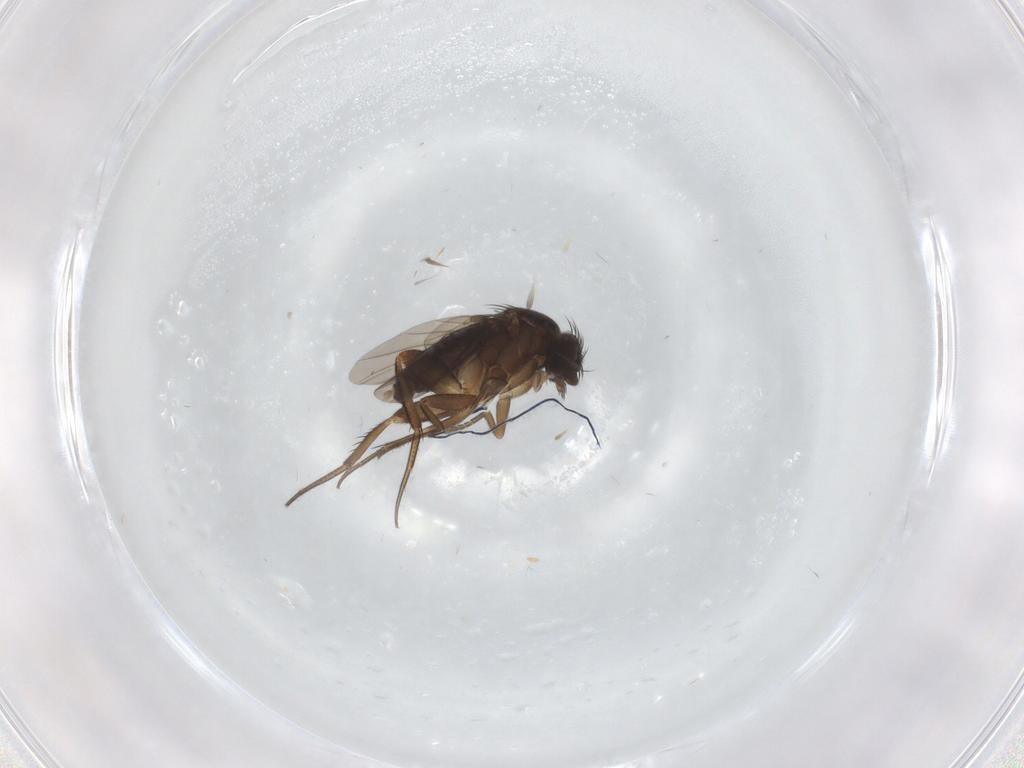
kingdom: Animalia
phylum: Arthropoda
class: Insecta
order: Diptera
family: Phoridae
